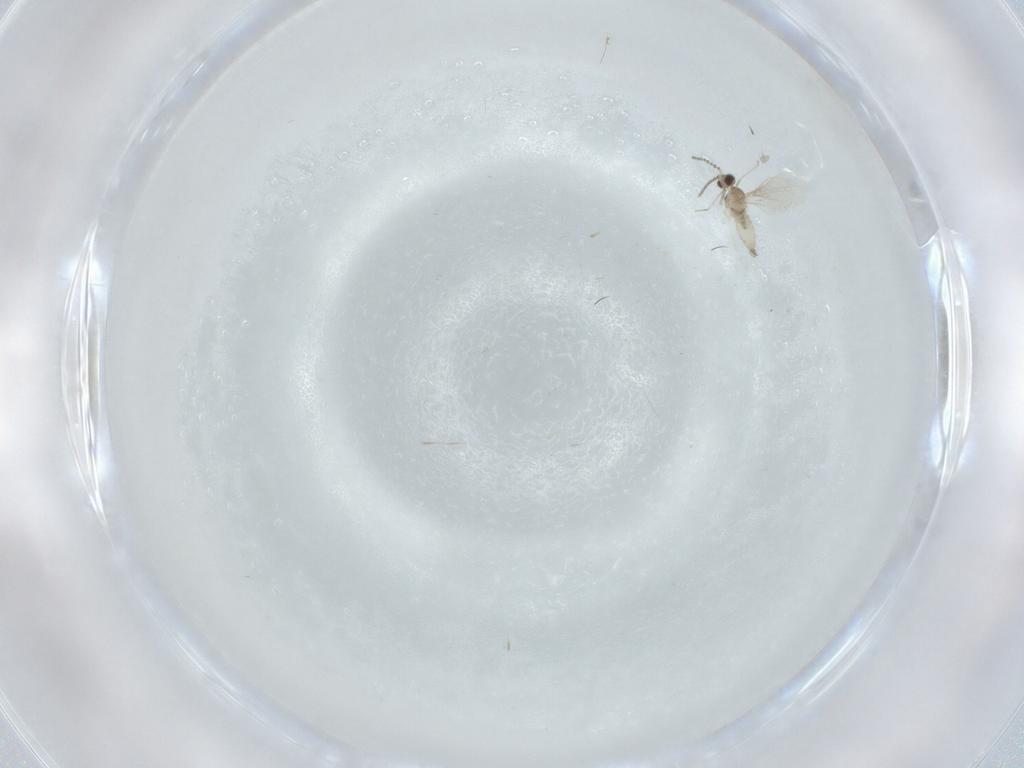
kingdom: Animalia
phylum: Arthropoda
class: Insecta
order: Diptera
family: Cecidomyiidae
